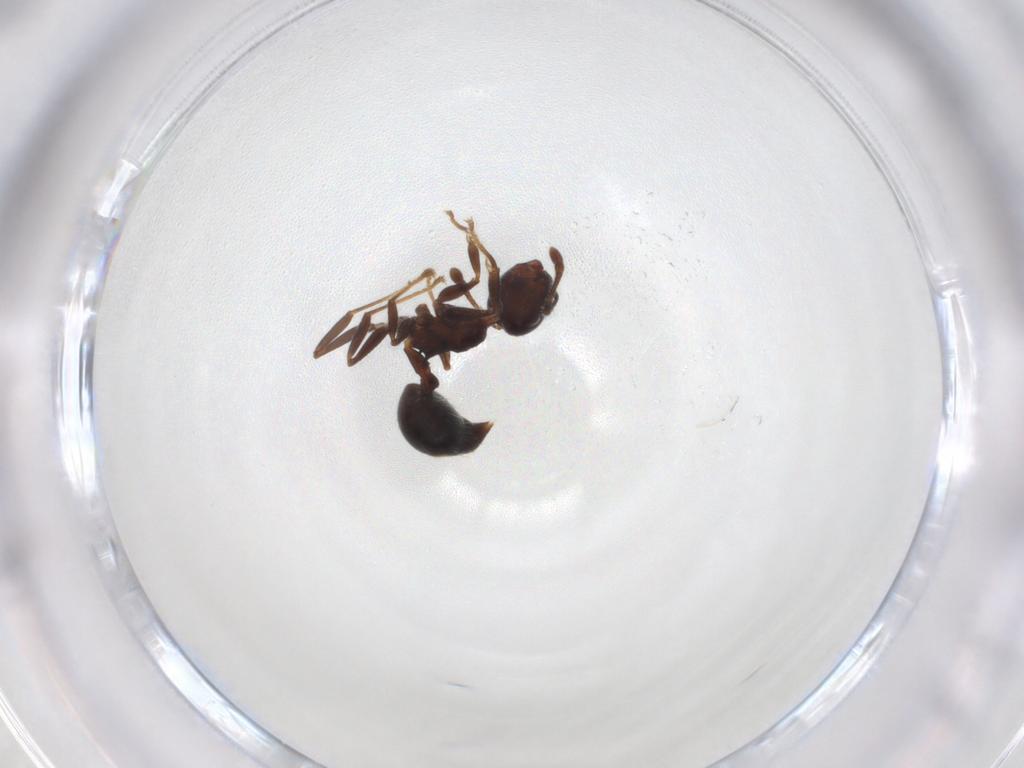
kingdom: Animalia
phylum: Arthropoda
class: Insecta
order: Hymenoptera
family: Formicidae
